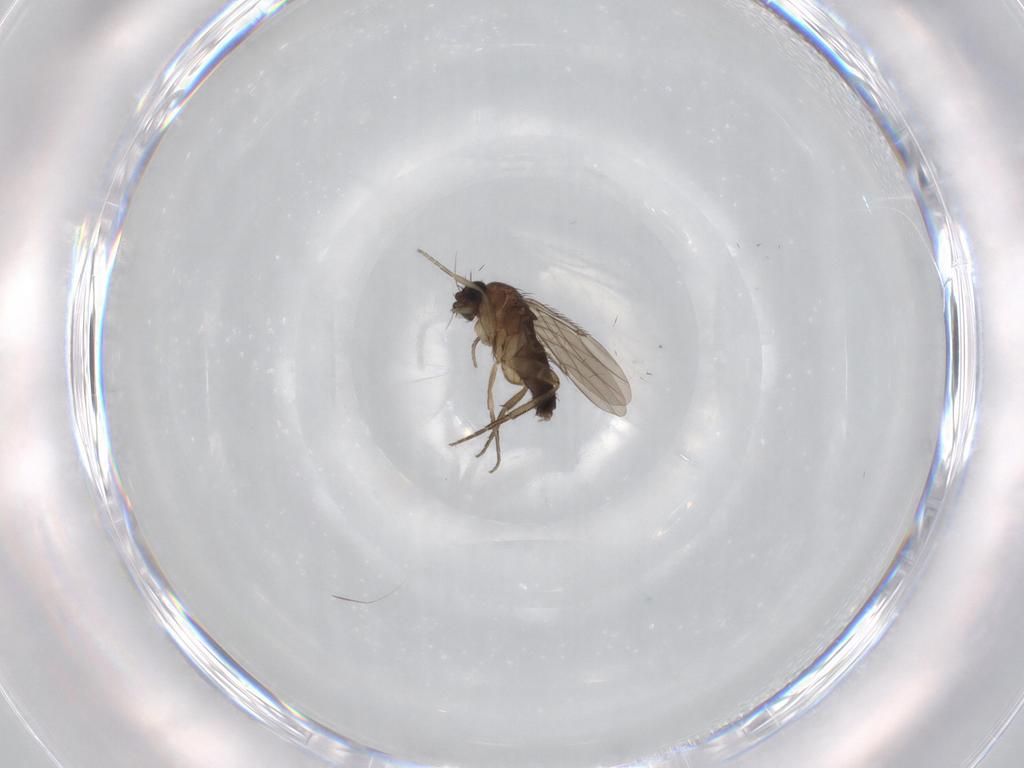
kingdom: Animalia
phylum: Arthropoda
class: Insecta
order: Diptera
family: Phoridae
